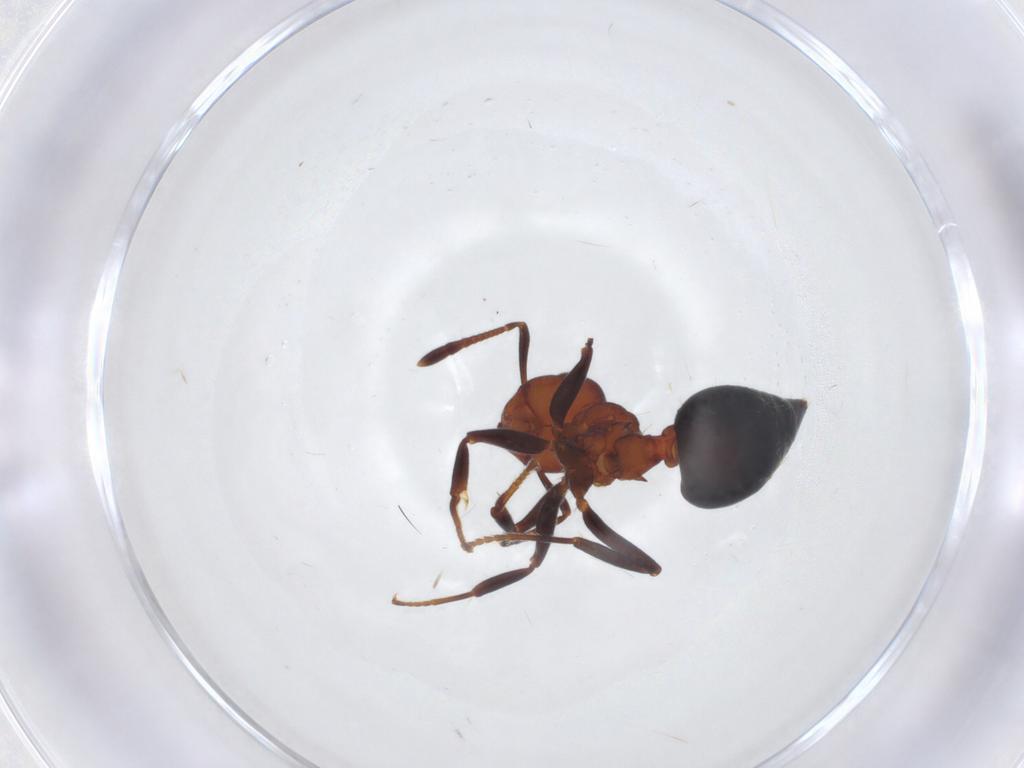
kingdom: Animalia
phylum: Arthropoda
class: Insecta
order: Hymenoptera
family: Formicidae
